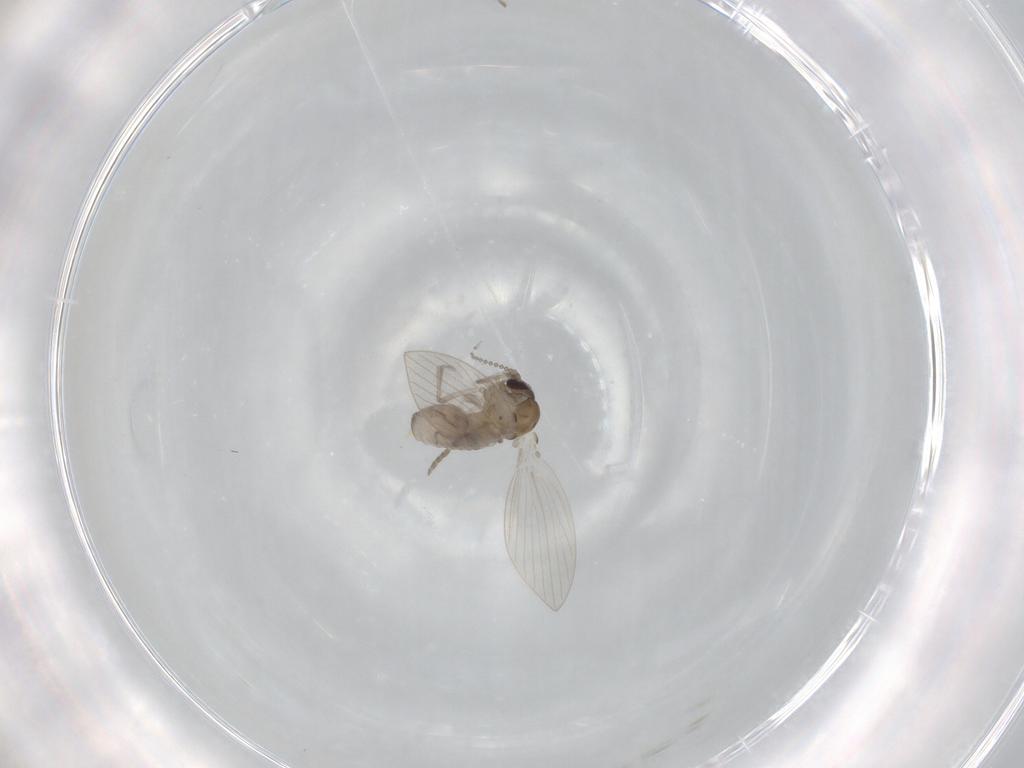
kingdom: Animalia
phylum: Arthropoda
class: Insecta
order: Diptera
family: Psychodidae
